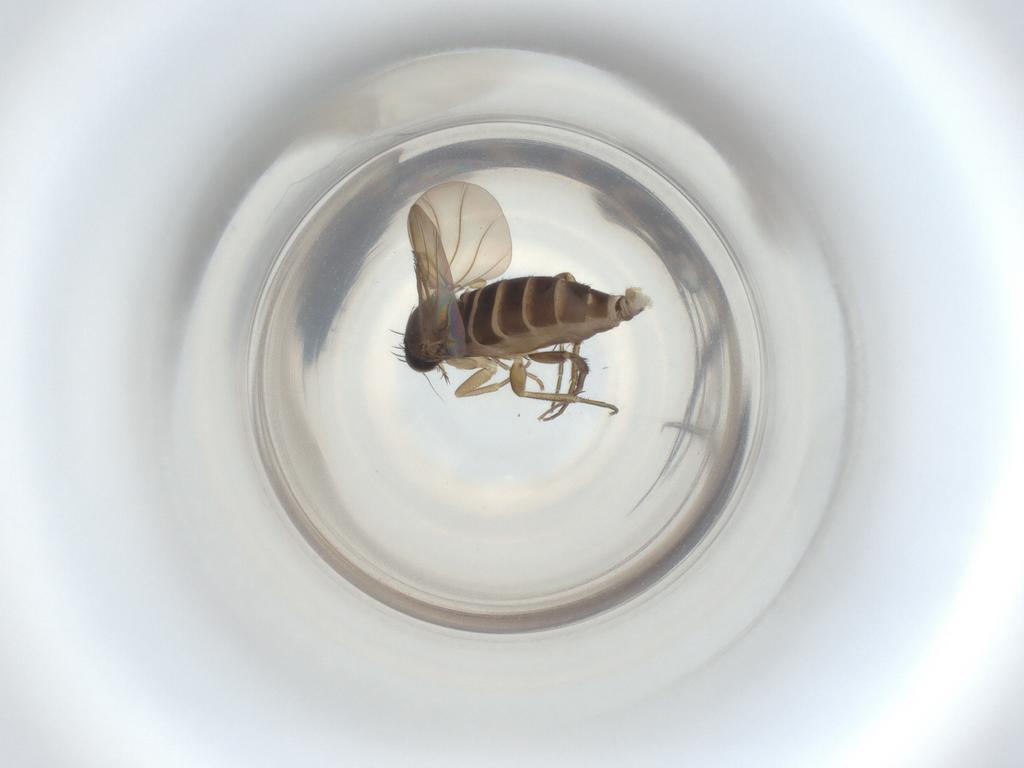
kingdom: Animalia
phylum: Arthropoda
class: Insecta
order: Diptera
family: Phoridae
